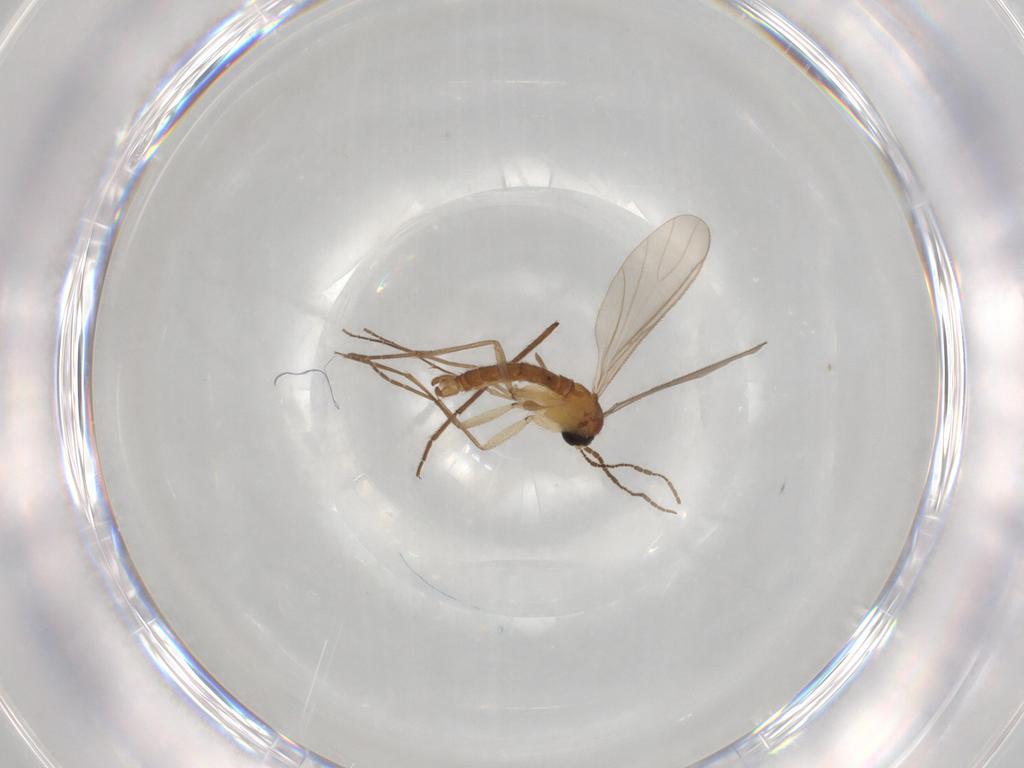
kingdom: Animalia
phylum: Arthropoda
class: Insecta
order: Diptera
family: Sciaridae
